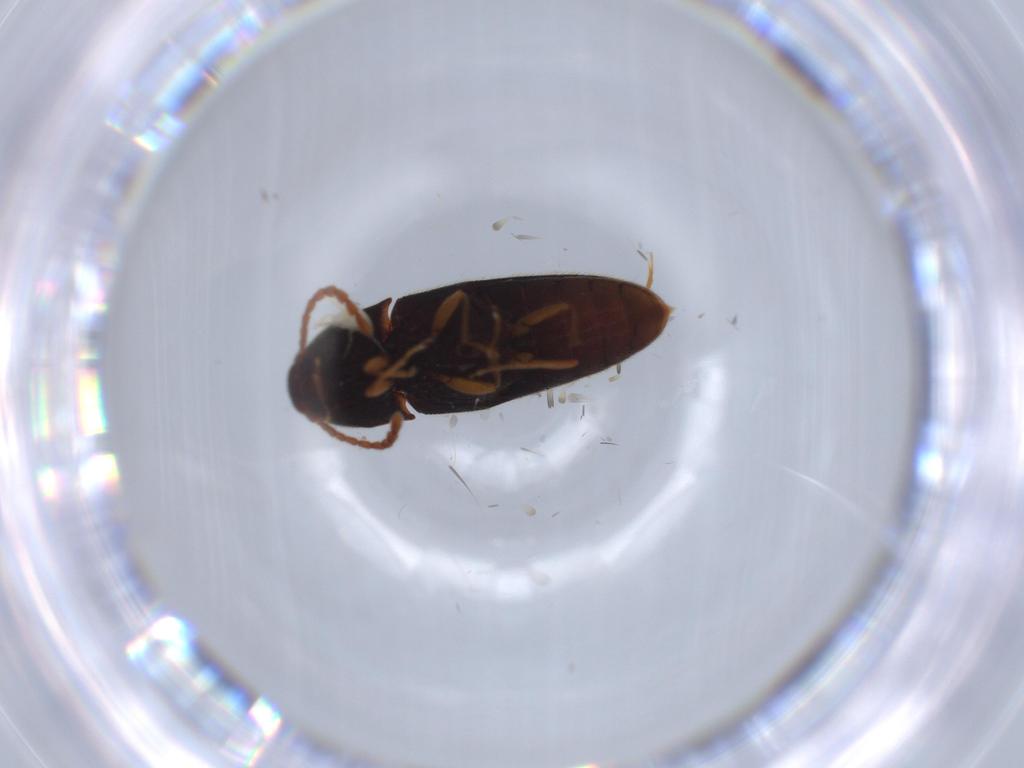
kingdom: Animalia
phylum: Arthropoda
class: Insecta
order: Coleoptera
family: Elateridae
